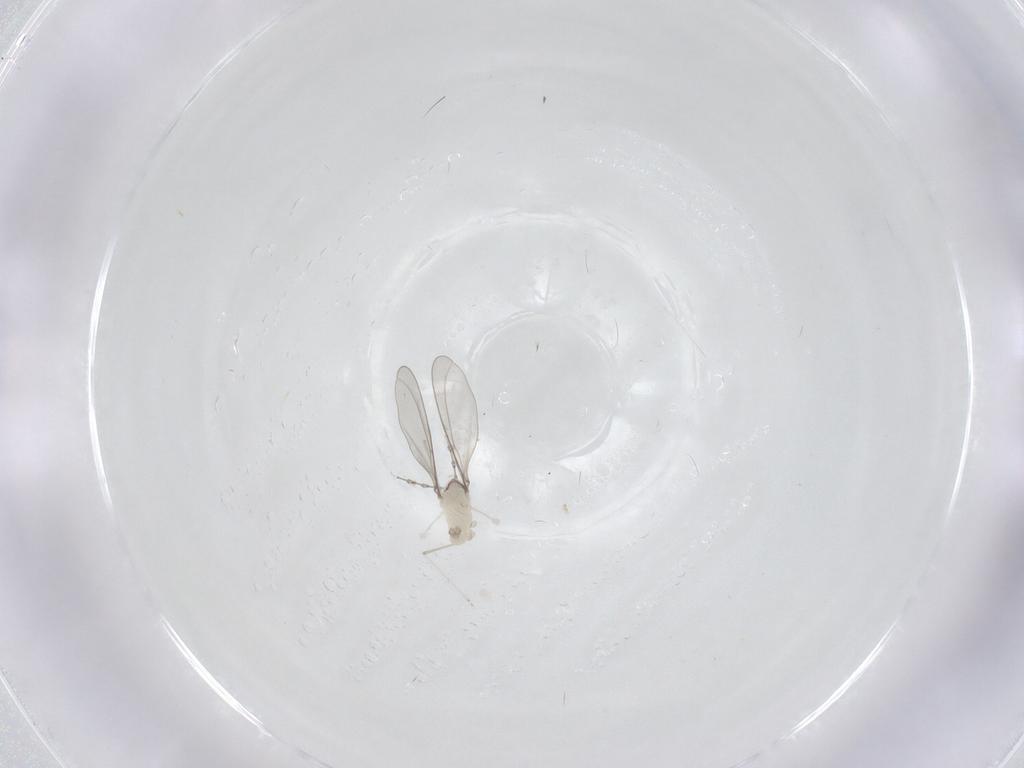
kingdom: Animalia
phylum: Arthropoda
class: Insecta
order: Diptera
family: Cecidomyiidae
